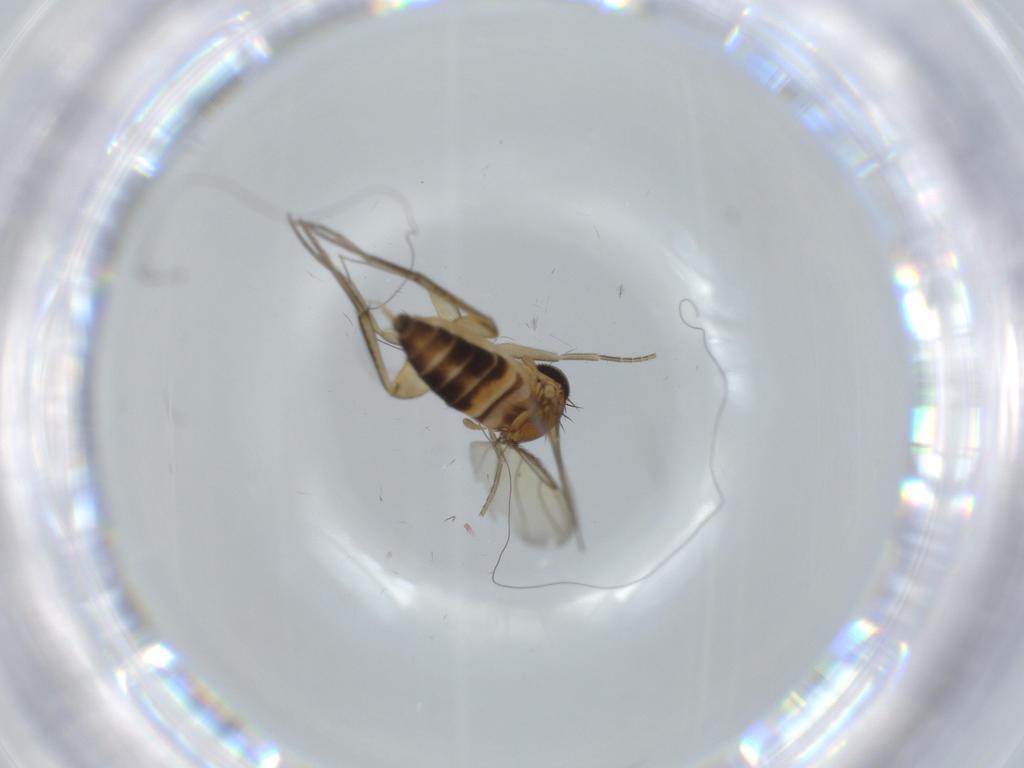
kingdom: Animalia
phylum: Arthropoda
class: Insecta
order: Diptera
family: Phoridae
